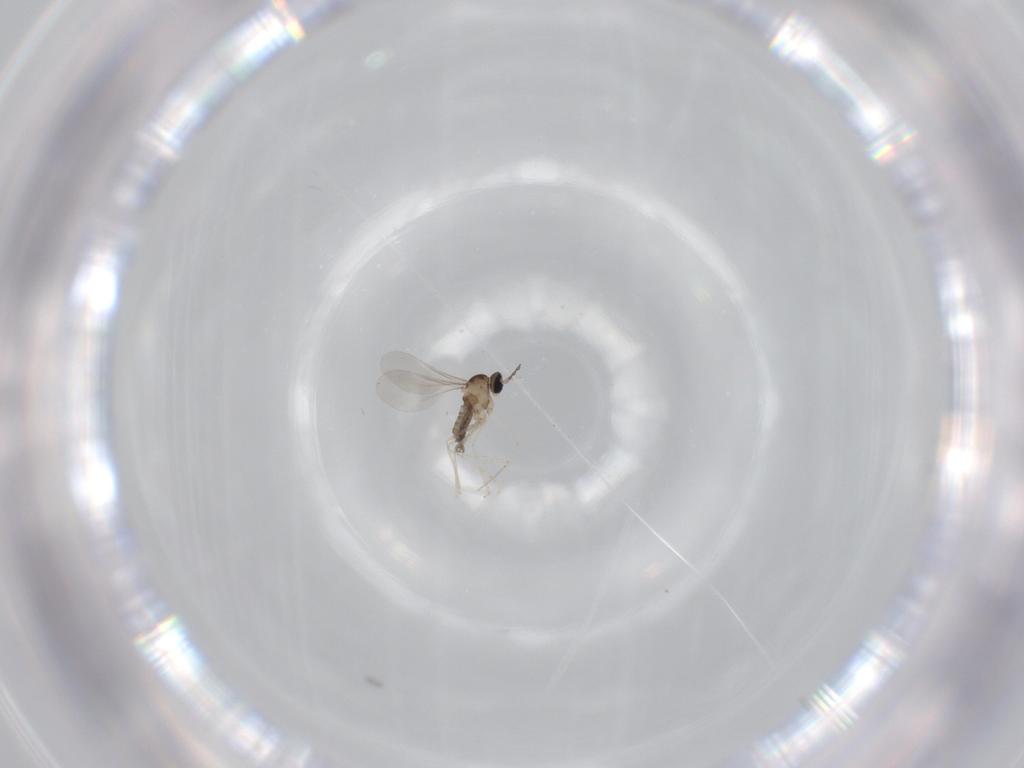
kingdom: Animalia
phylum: Arthropoda
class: Insecta
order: Diptera
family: Cecidomyiidae
